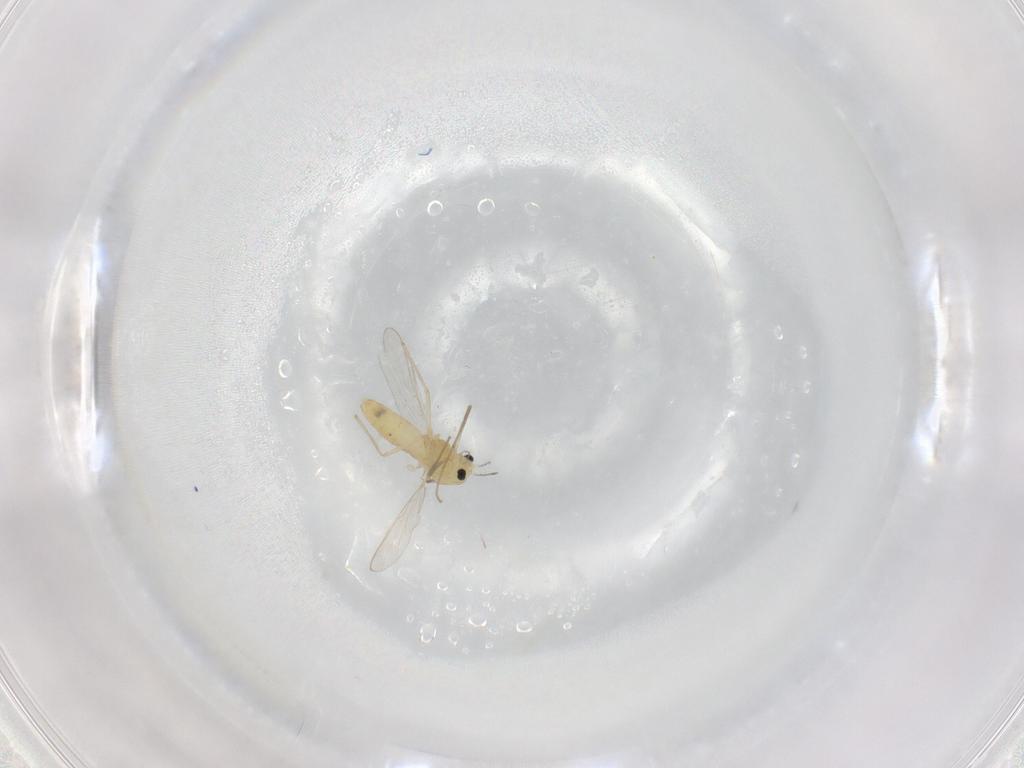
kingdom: Animalia
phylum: Arthropoda
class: Insecta
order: Diptera
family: Chironomidae
